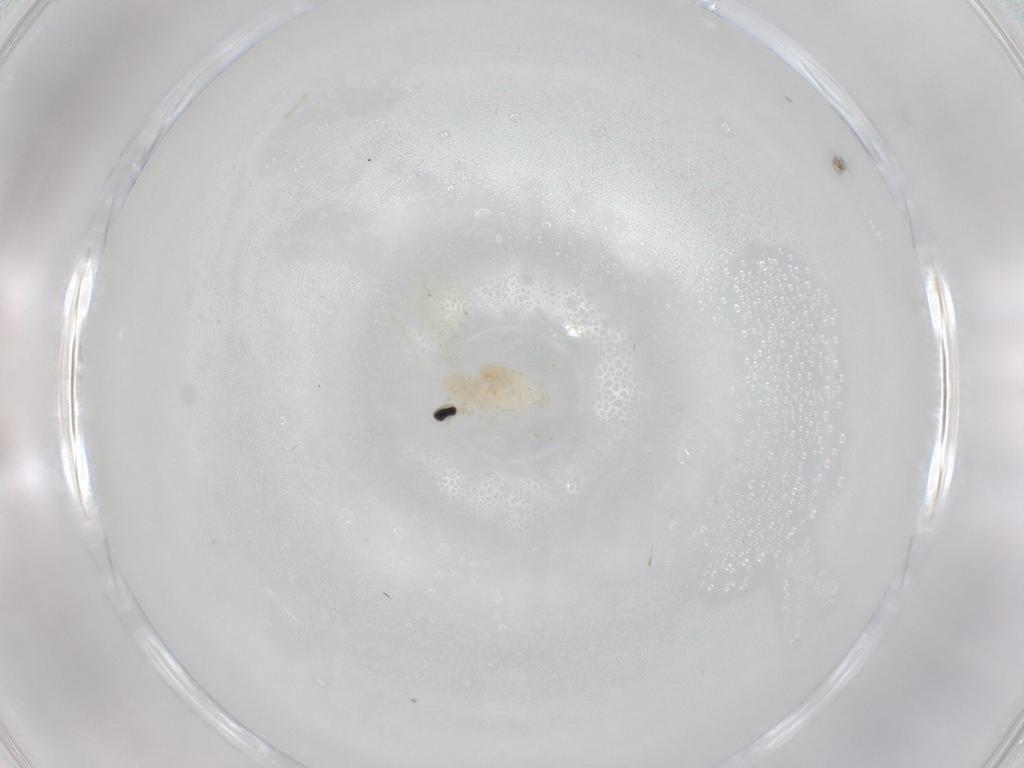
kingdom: Animalia
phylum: Arthropoda
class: Insecta
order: Diptera
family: Cecidomyiidae
